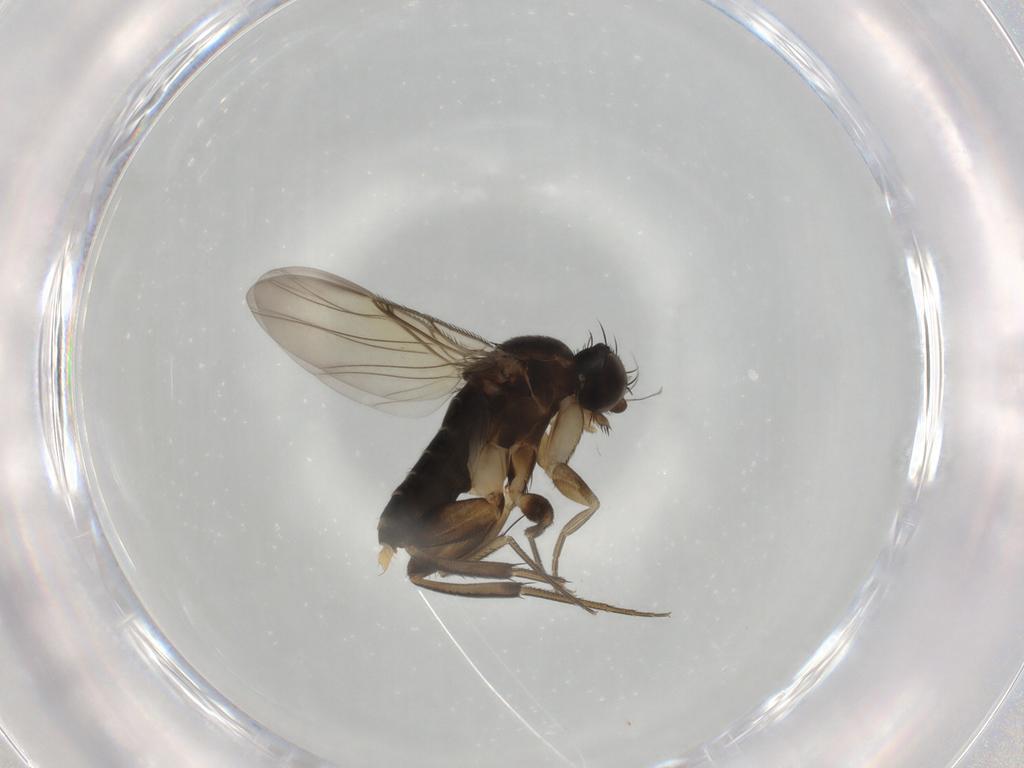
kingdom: Animalia
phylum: Arthropoda
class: Insecta
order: Diptera
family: Phoridae
